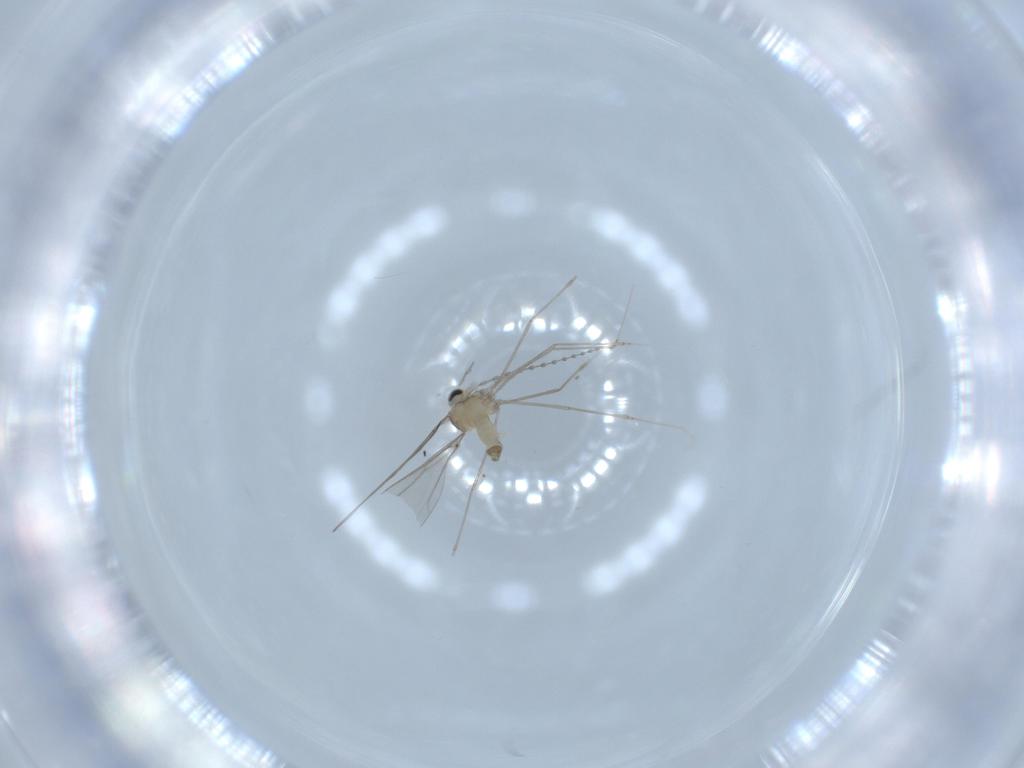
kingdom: Animalia
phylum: Arthropoda
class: Insecta
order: Diptera
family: Cecidomyiidae
